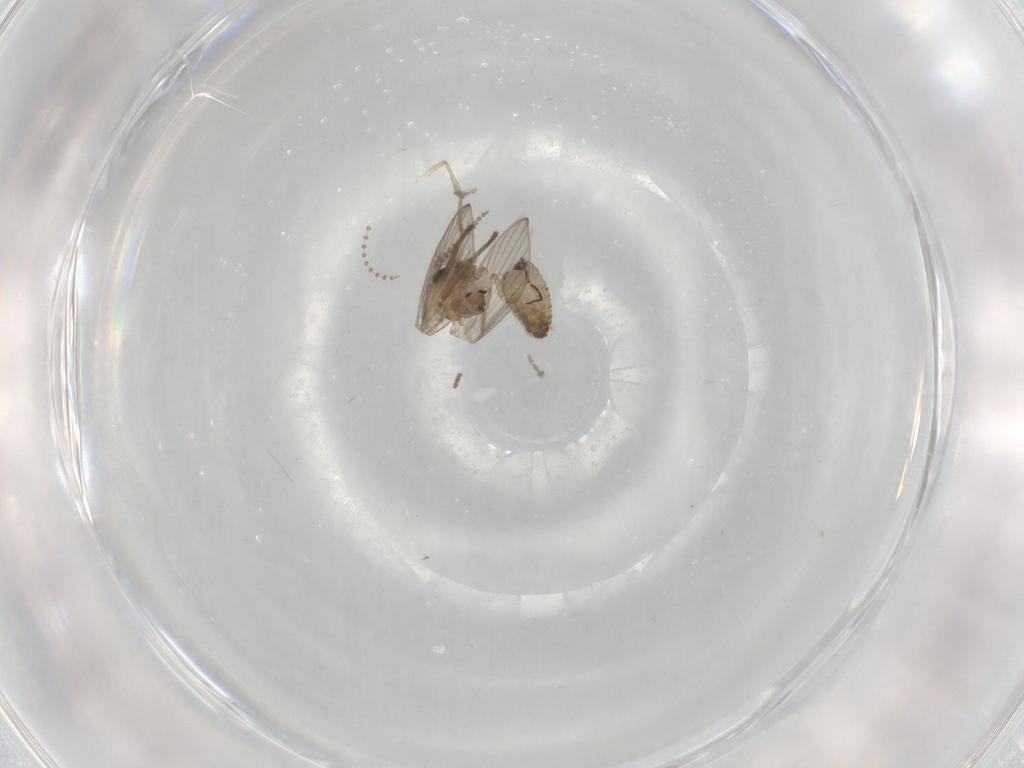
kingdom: Animalia
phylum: Arthropoda
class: Insecta
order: Diptera
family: Psychodidae
